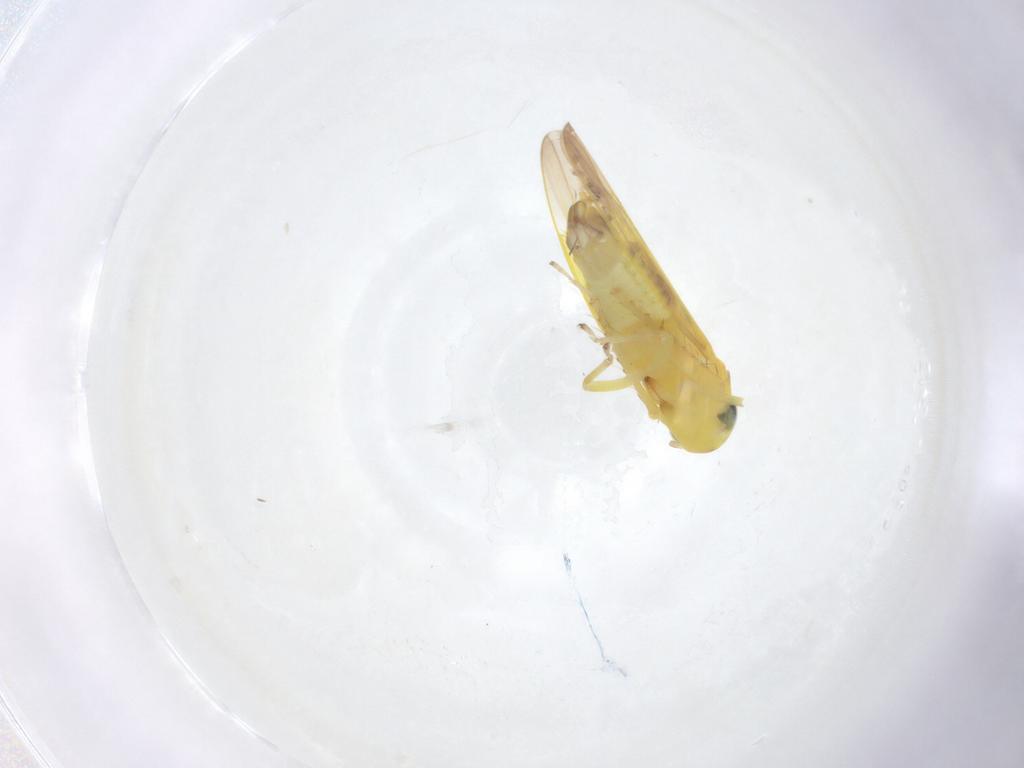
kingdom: Animalia
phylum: Arthropoda
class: Insecta
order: Hemiptera
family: Cicadellidae
